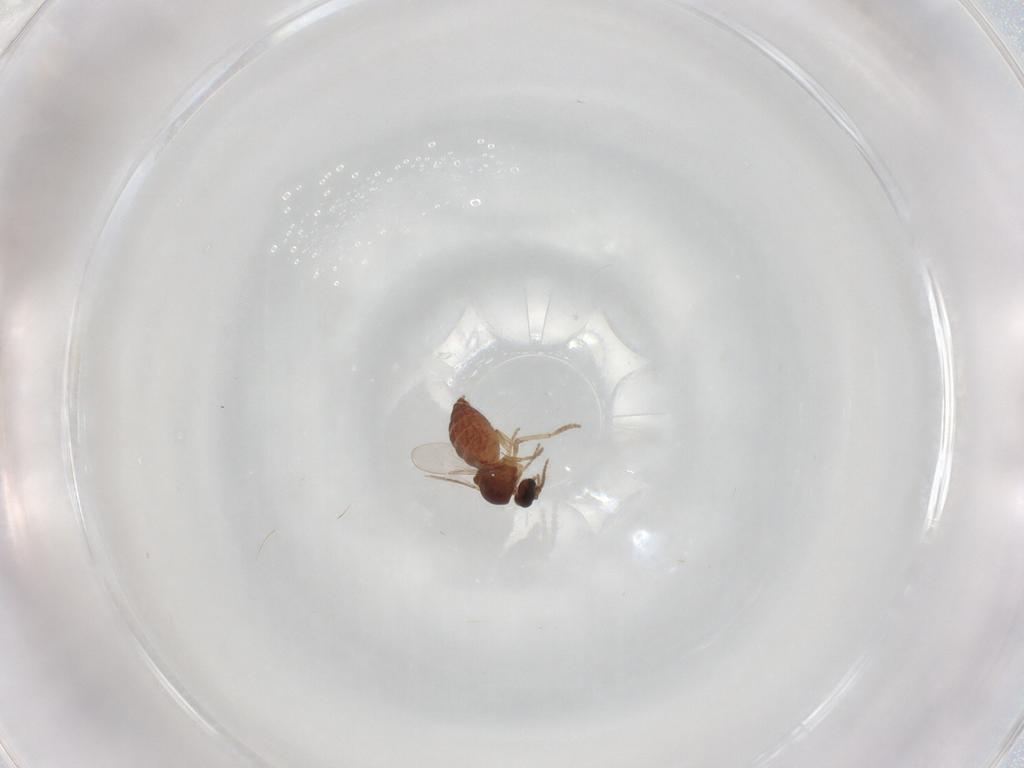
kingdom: Animalia
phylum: Arthropoda
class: Insecta
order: Diptera
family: Ceratopogonidae
